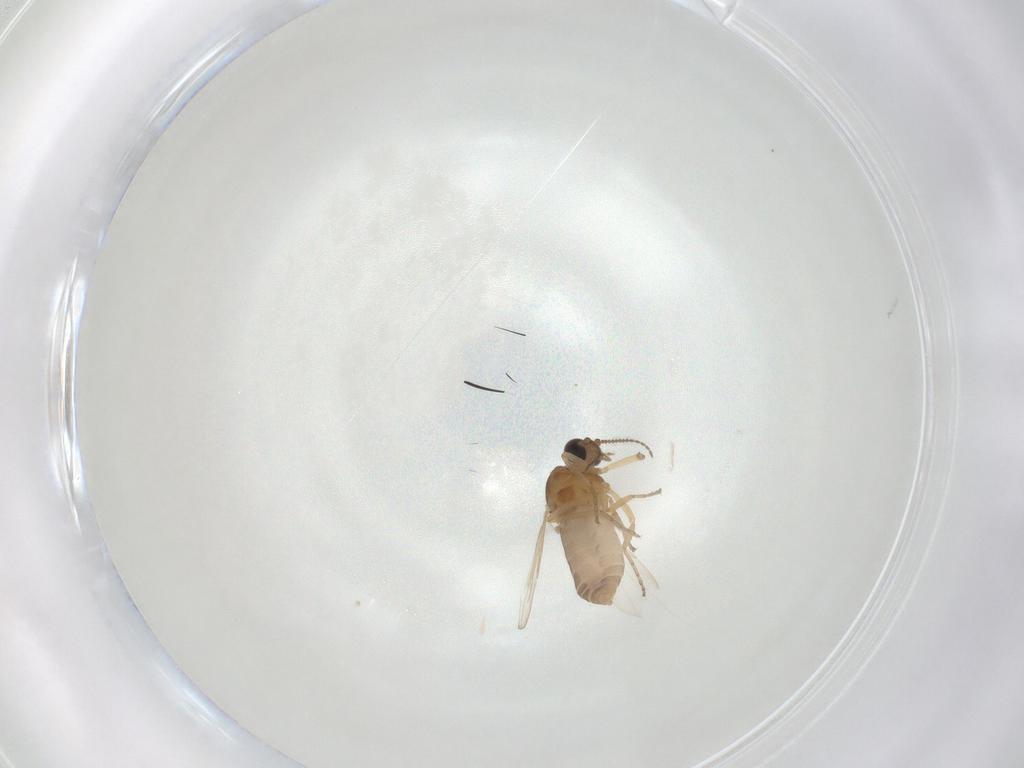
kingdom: Animalia
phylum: Arthropoda
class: Insecta
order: Diptera
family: Ceratopogonidae
